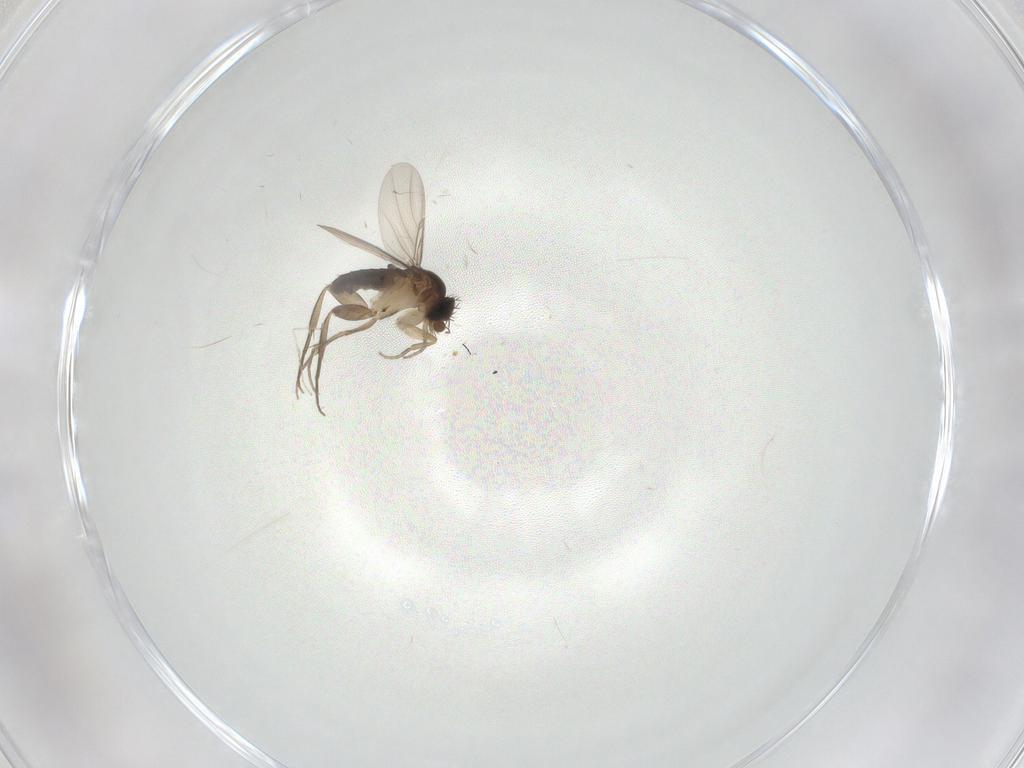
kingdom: Animalia
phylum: Arthropoda
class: Insecta
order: Diptera
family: Phoridae
